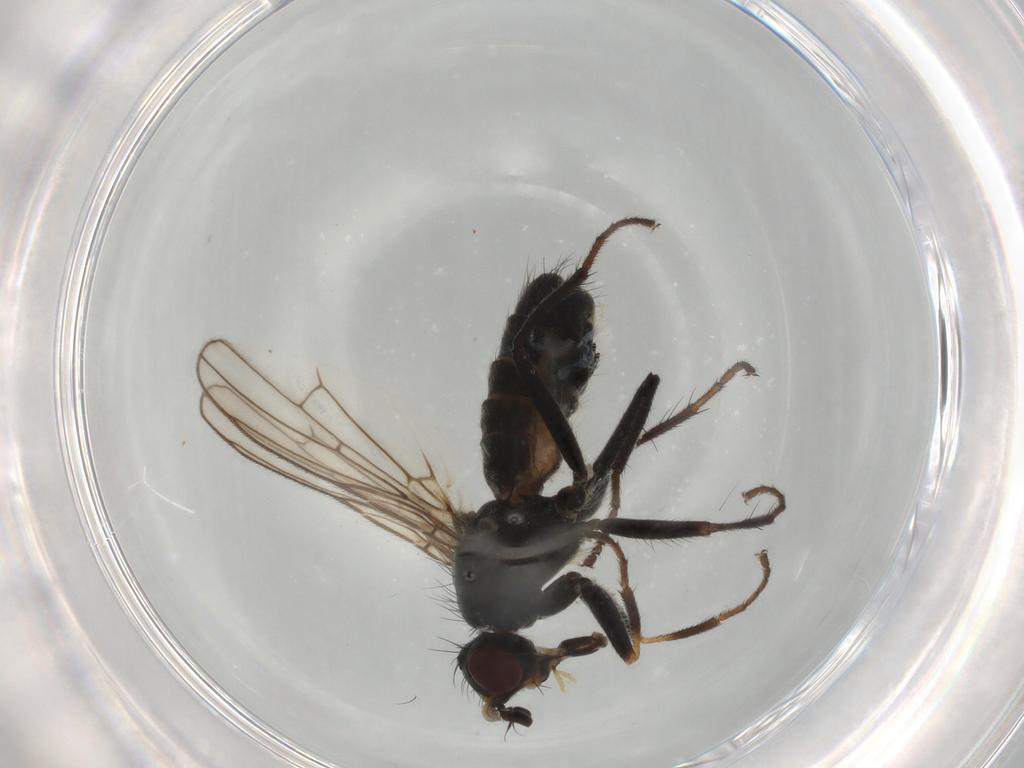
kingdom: Animalia
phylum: Arthropoda
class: Insecta
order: Diptera
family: Scathophagidae
